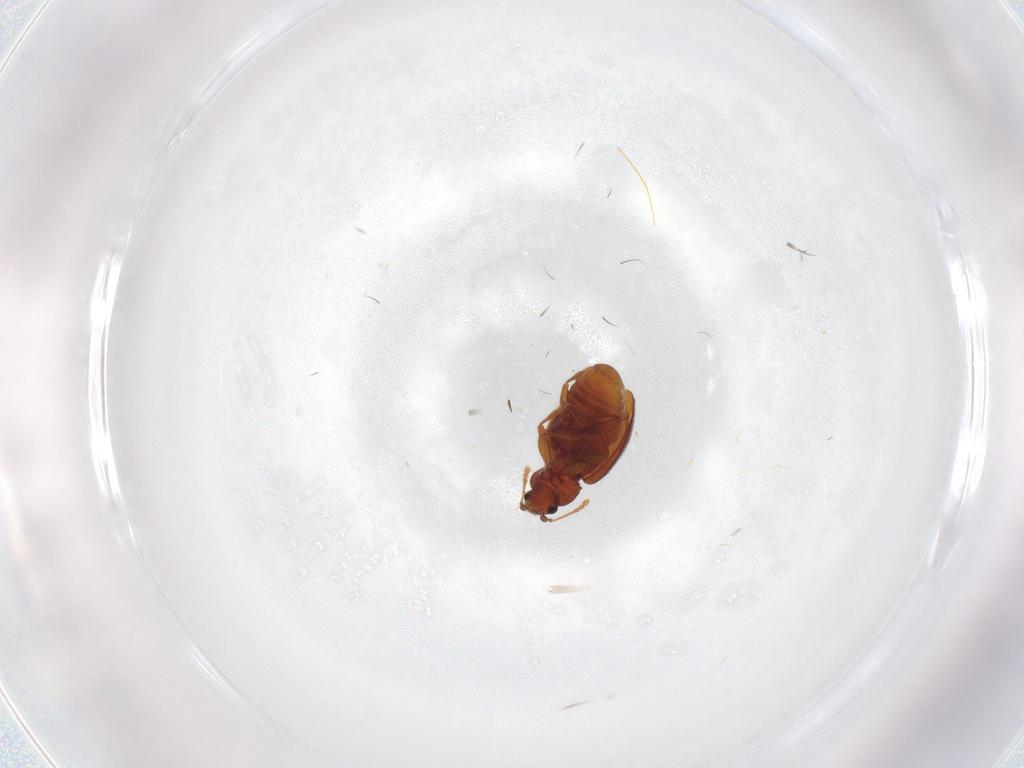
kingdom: Animalia
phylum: Arthropoda
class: Insecta
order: Coleoptera
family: Latridiidae
